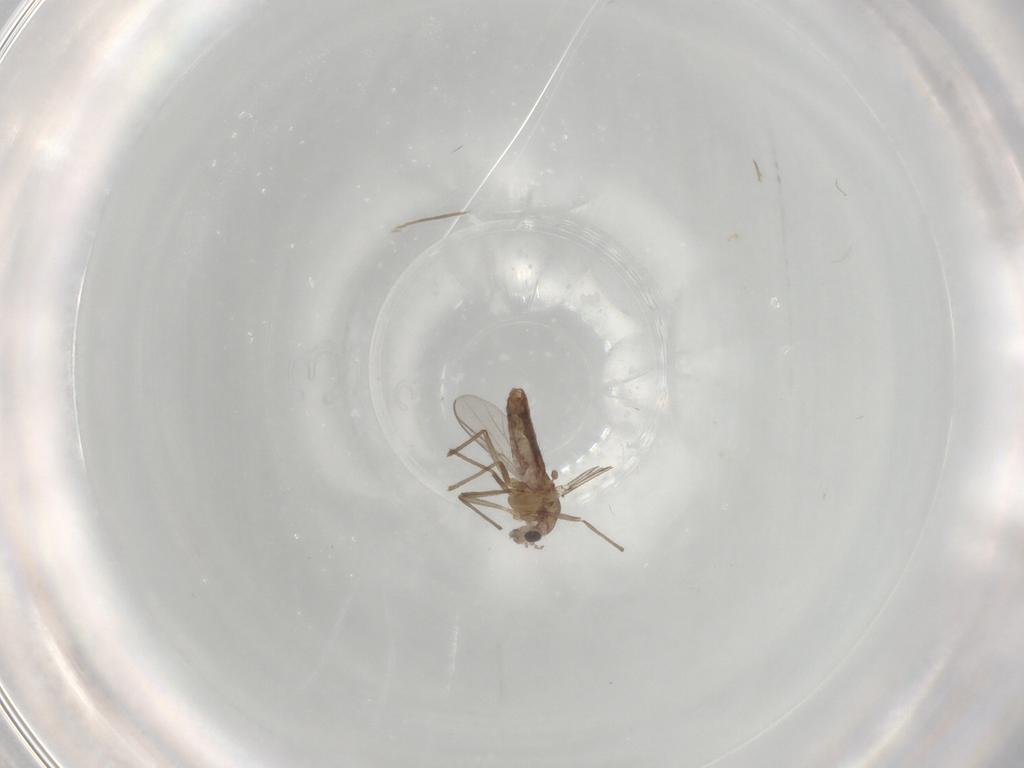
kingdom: Animalia
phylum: Arthropoda
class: Insecta
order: Diptera
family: Chironomidae
